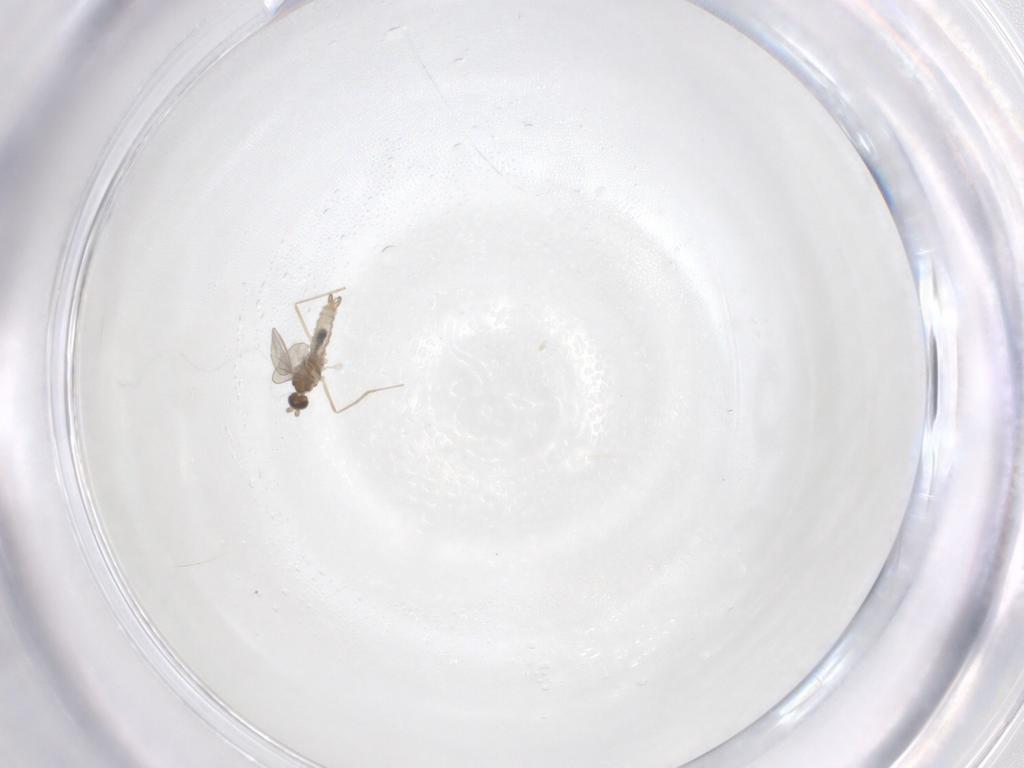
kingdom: Animalia
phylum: Arthropoda
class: Insecta
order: Diptera
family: Cecidomyiidae
